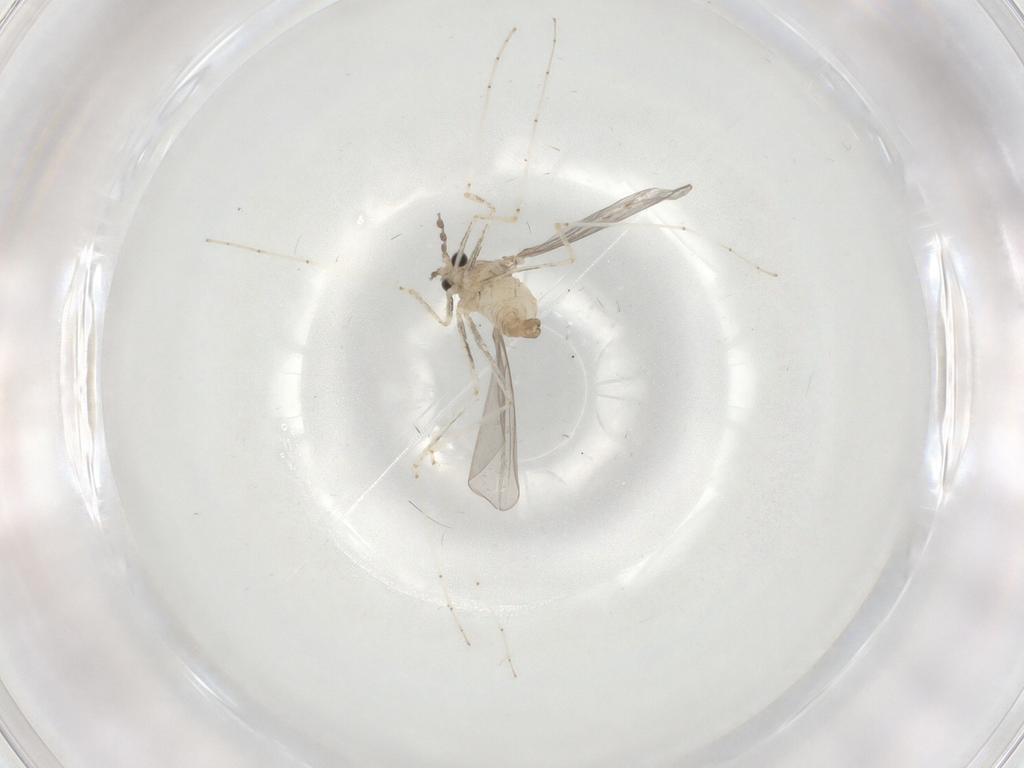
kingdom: Animalia
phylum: Arthropoda
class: Insecta
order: Diptera
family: Cecidomyiidae
